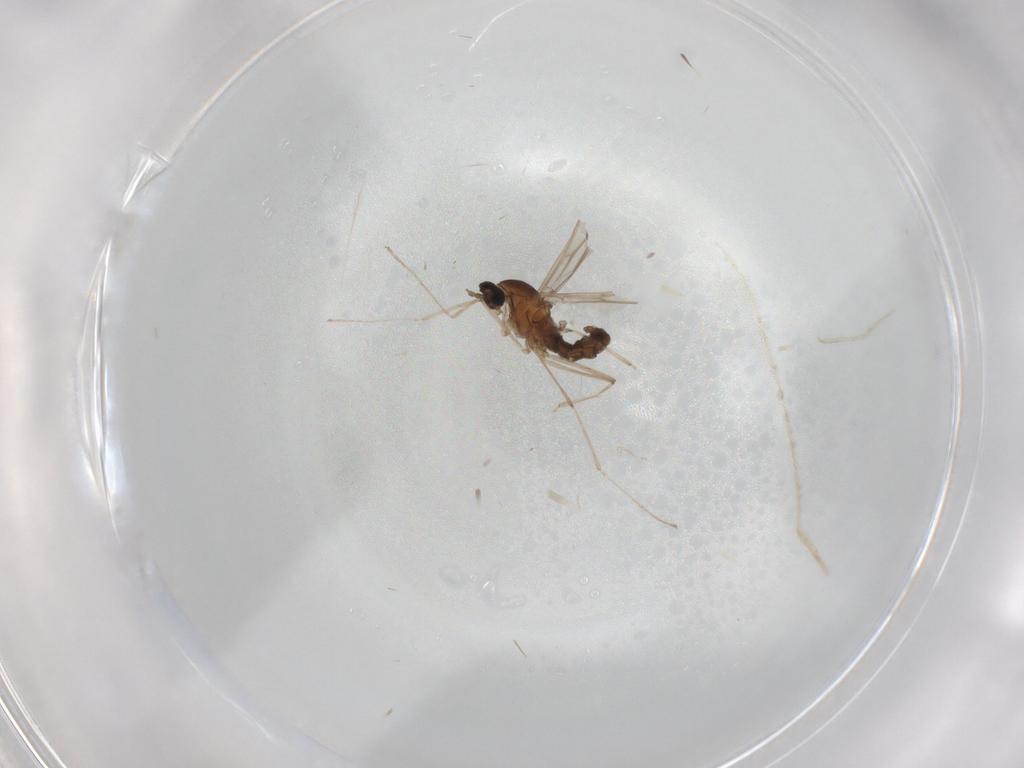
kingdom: Animalia
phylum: Arthropoda
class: Insecta
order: Diptera
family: Cecidomyiidae
